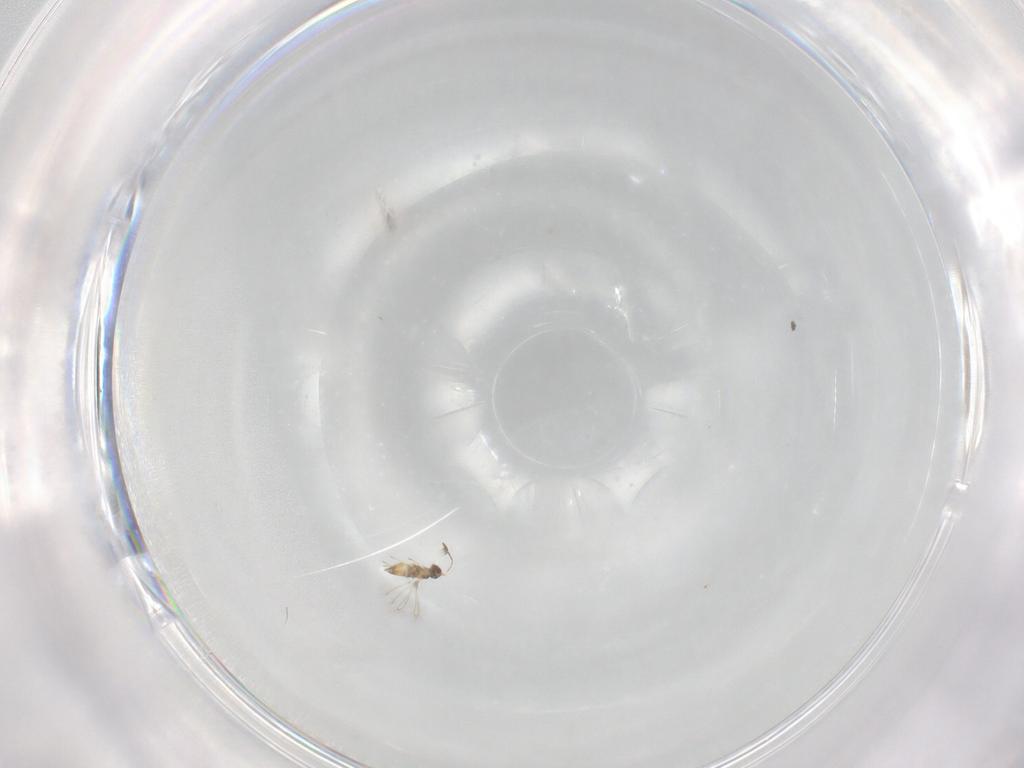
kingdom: Animalia
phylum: Arthropoda
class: Insecta
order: Hymenoptera
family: Mymaridae
